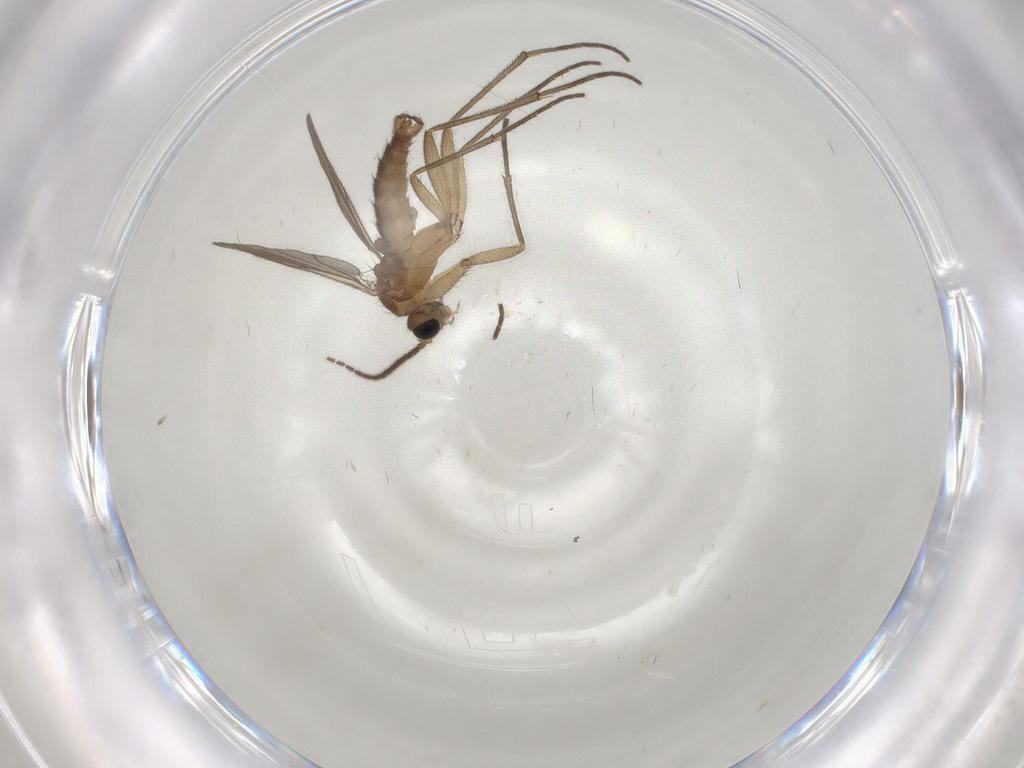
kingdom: Animalia
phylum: Arthropoda
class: Insecta
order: Diptera
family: Sciaridae
